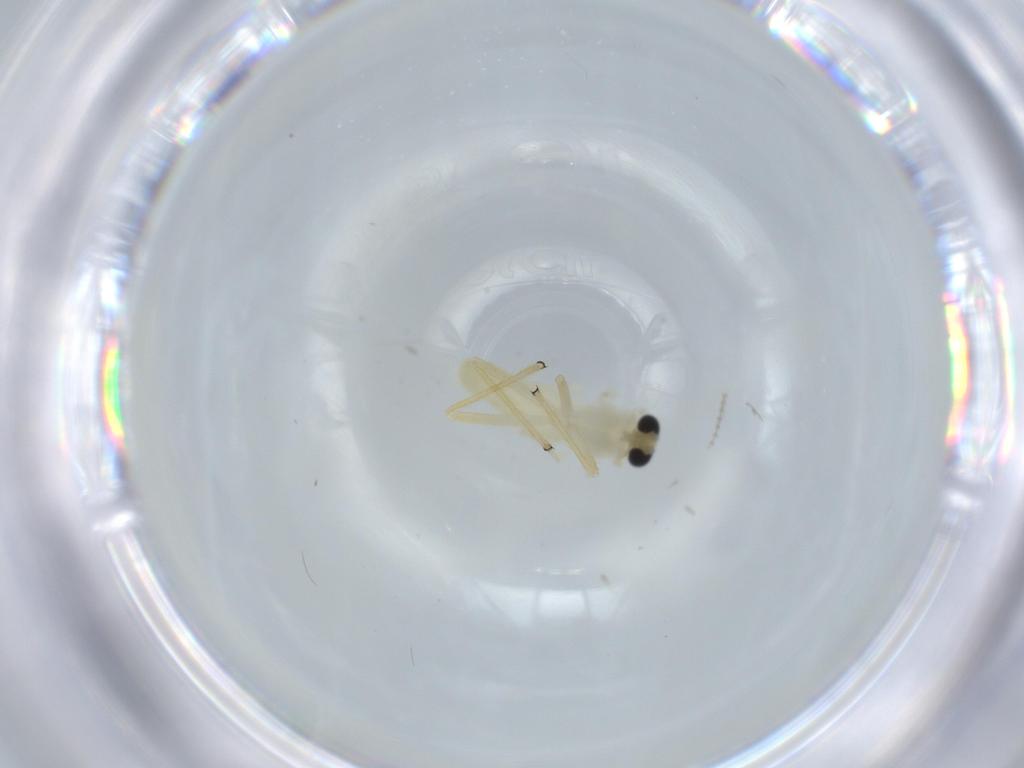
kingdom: Animalia
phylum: Arthropoda
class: Insecta
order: Diptera
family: Chironomidae
